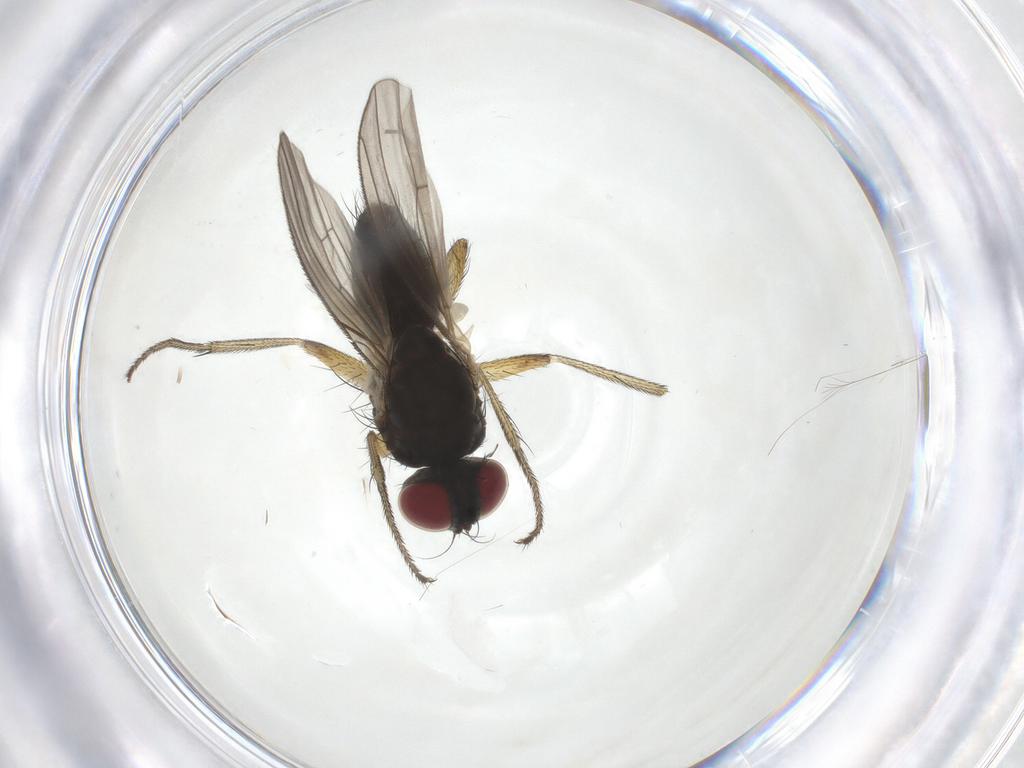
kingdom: Animalia
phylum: Arthropoda
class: Insecta
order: Diptera
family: Muscidae
